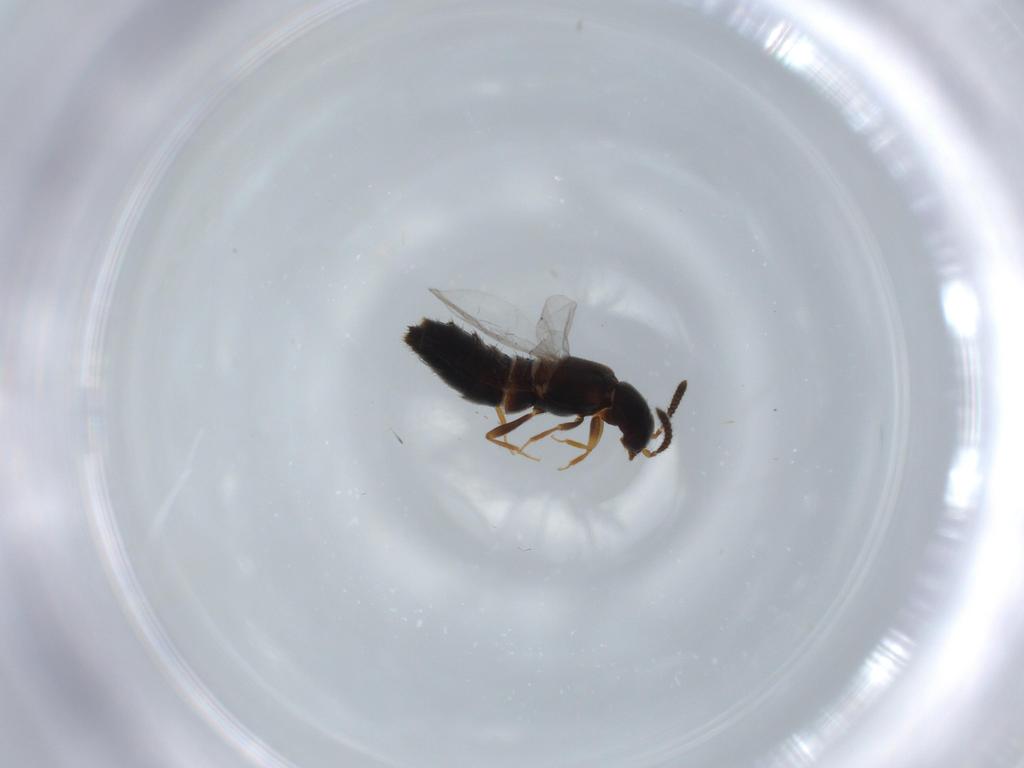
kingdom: Animalia
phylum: Arthropoda
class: Insecta
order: Coleoptera
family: Staphylinidae
